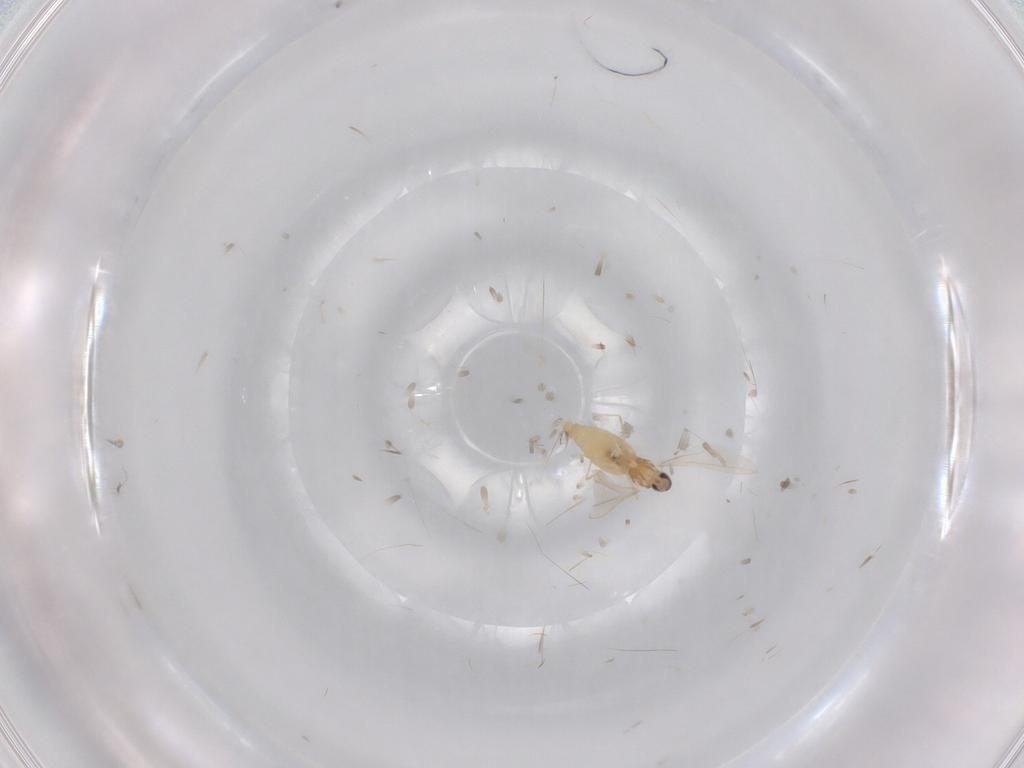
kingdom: Animalia
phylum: Arthropoda
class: Insecta
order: Diptera
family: Cecidomyiidae
